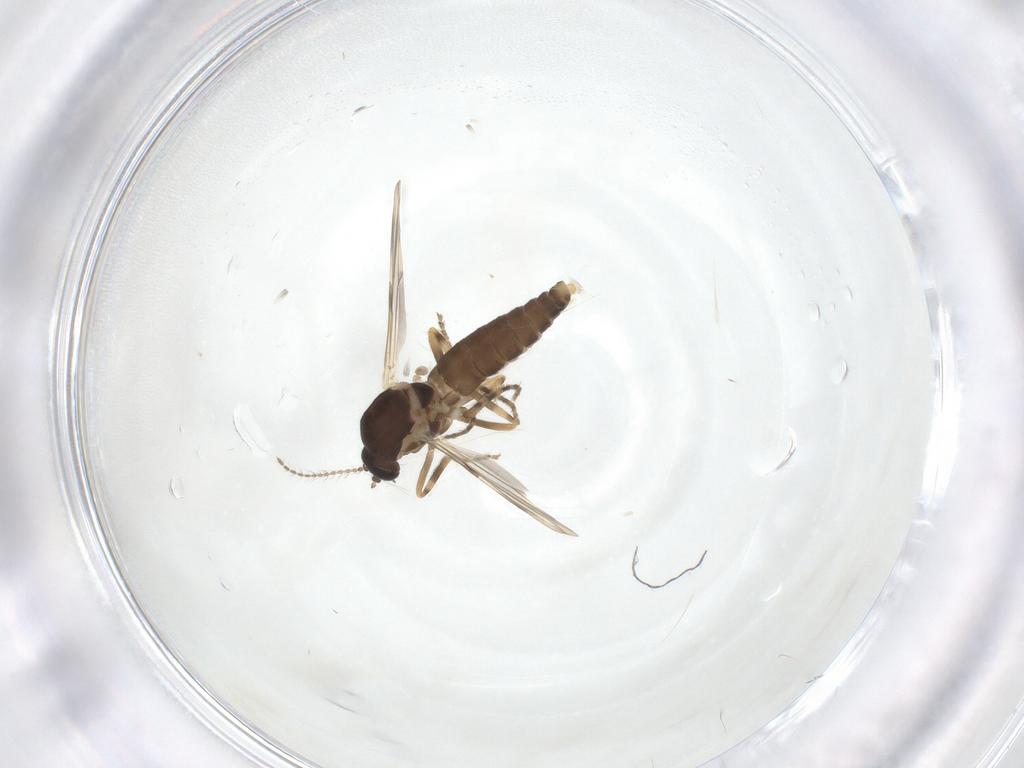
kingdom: Animalia
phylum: Arthropoda
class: Insecta
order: Diptera
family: Ceratopogonidae
